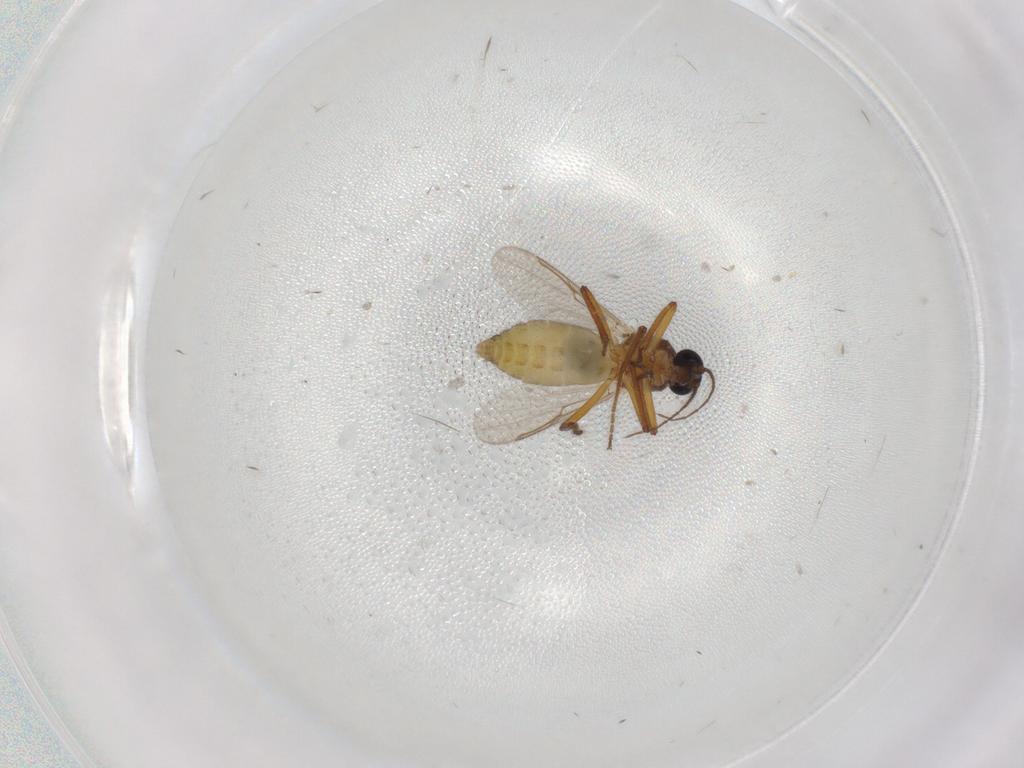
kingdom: Animalia
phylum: Arthropoda
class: Insecta
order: Diptera
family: Ceratopogonidae
